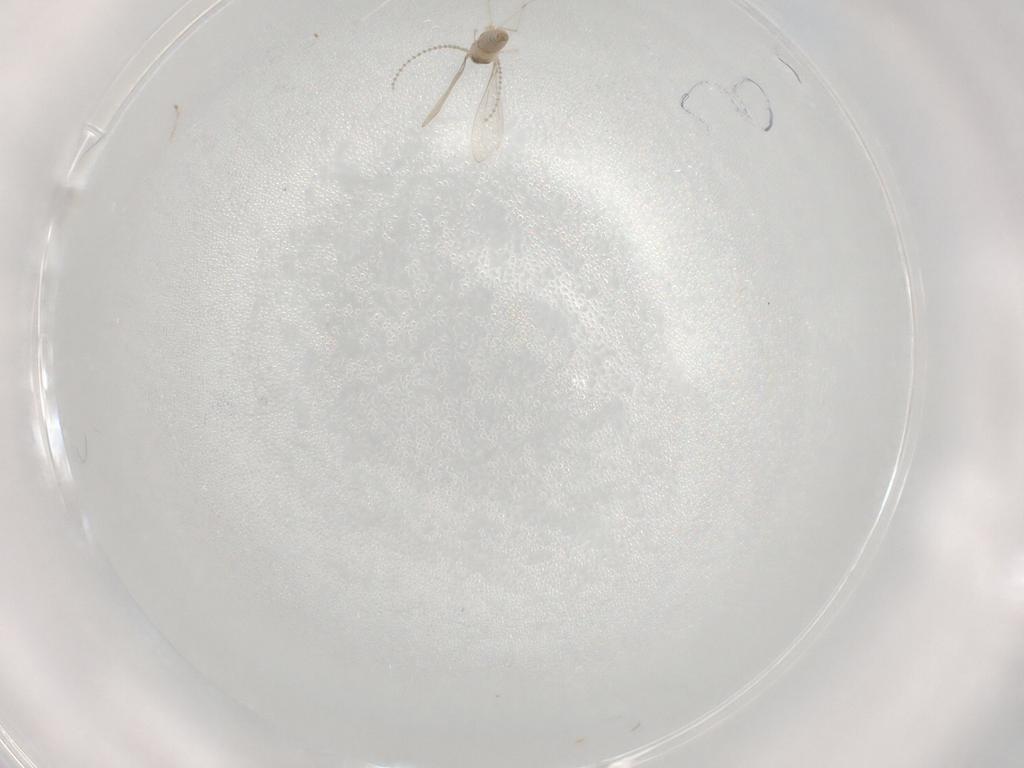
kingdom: Animalia
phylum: Arthropoda
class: Insecta
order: Diptera
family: Cecidomyiidae
